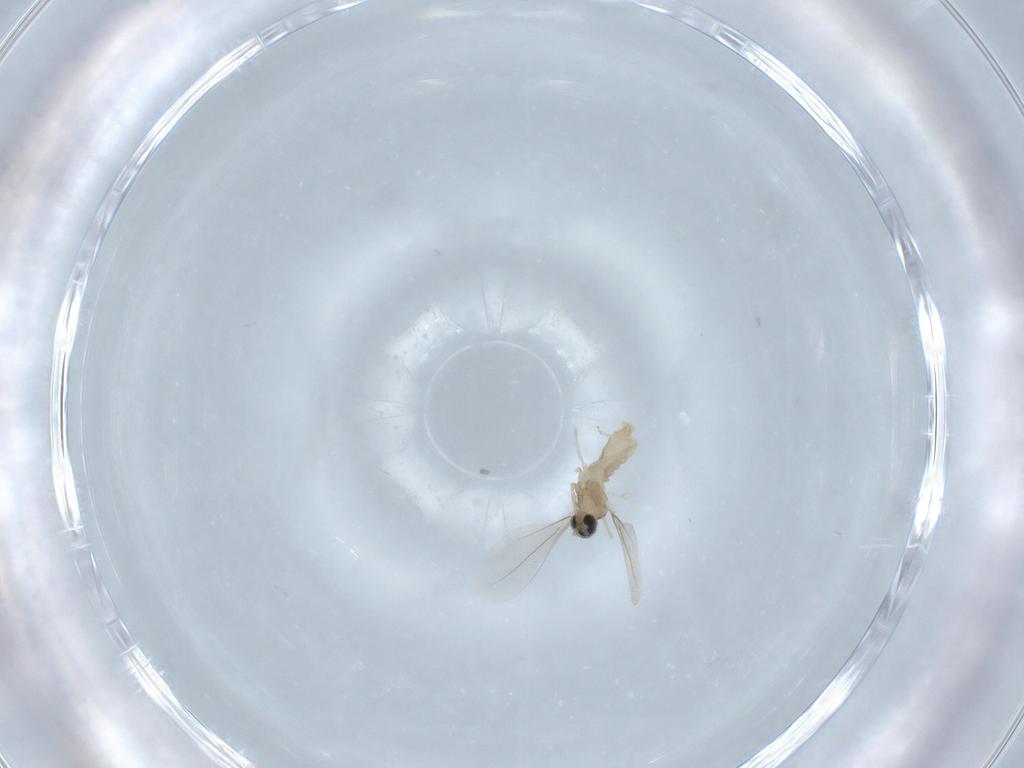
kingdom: Animalia
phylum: Arthropoda
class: Insecta
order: Diptera
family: Cecidomyiidae
